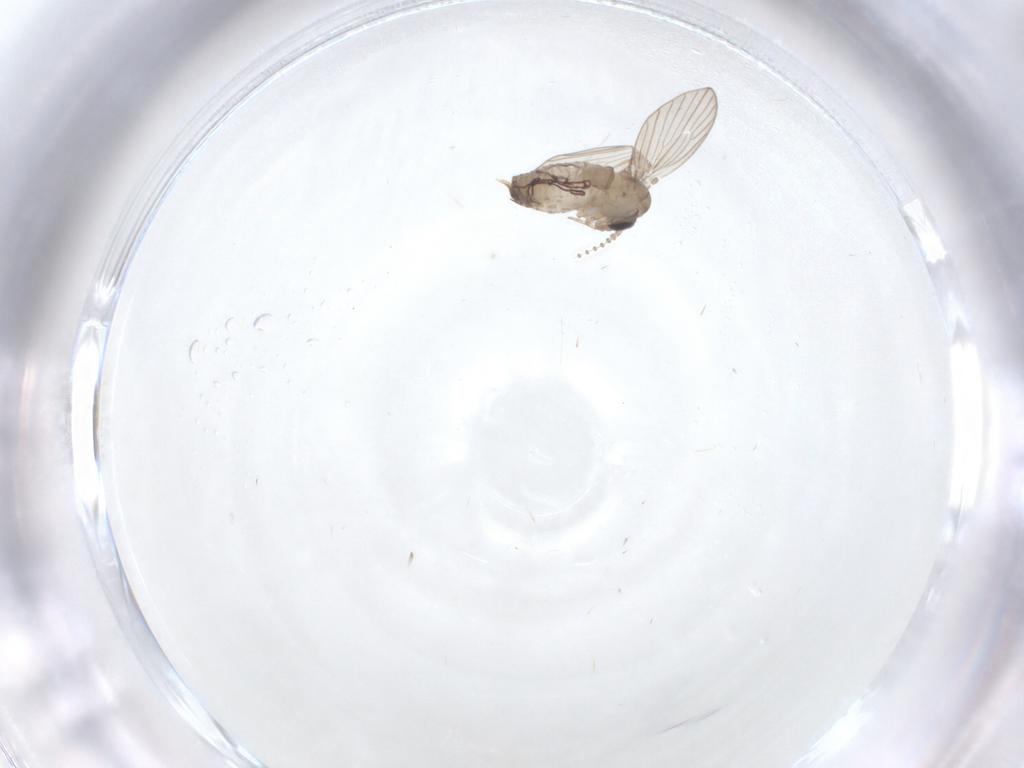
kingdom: Animalia
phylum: Arthropoda
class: Insecta
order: Diptera
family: Psychodidae
